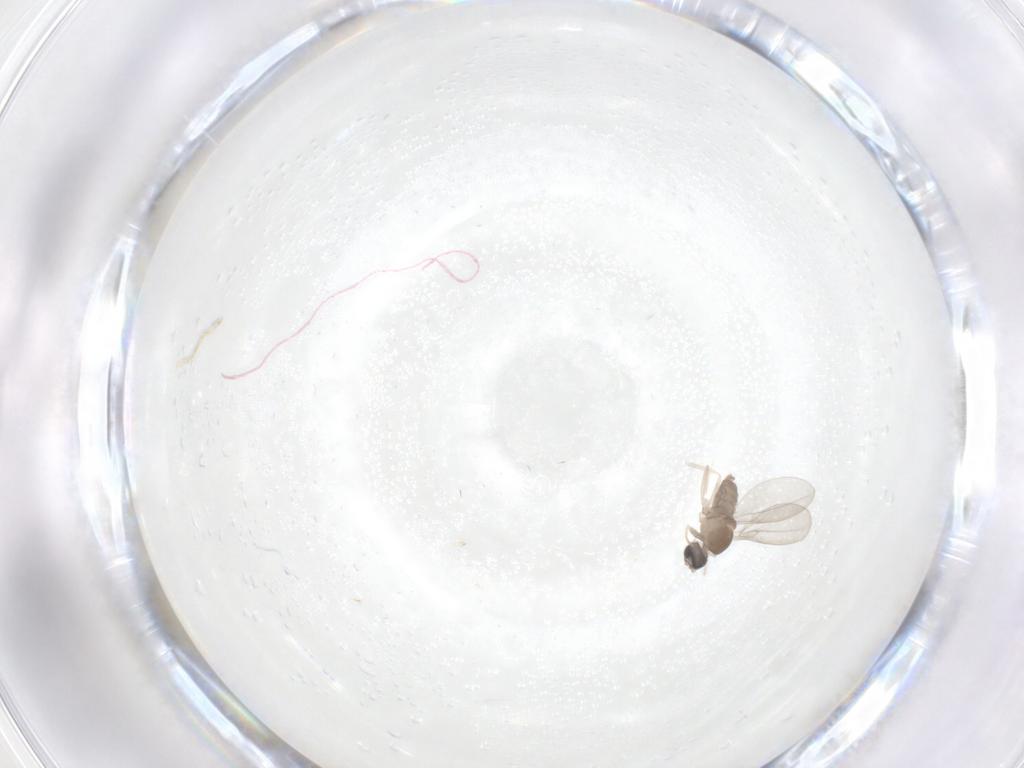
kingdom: Animalia
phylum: Arthropoda
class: Insecta
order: Diptera
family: Cecidomyiidae
